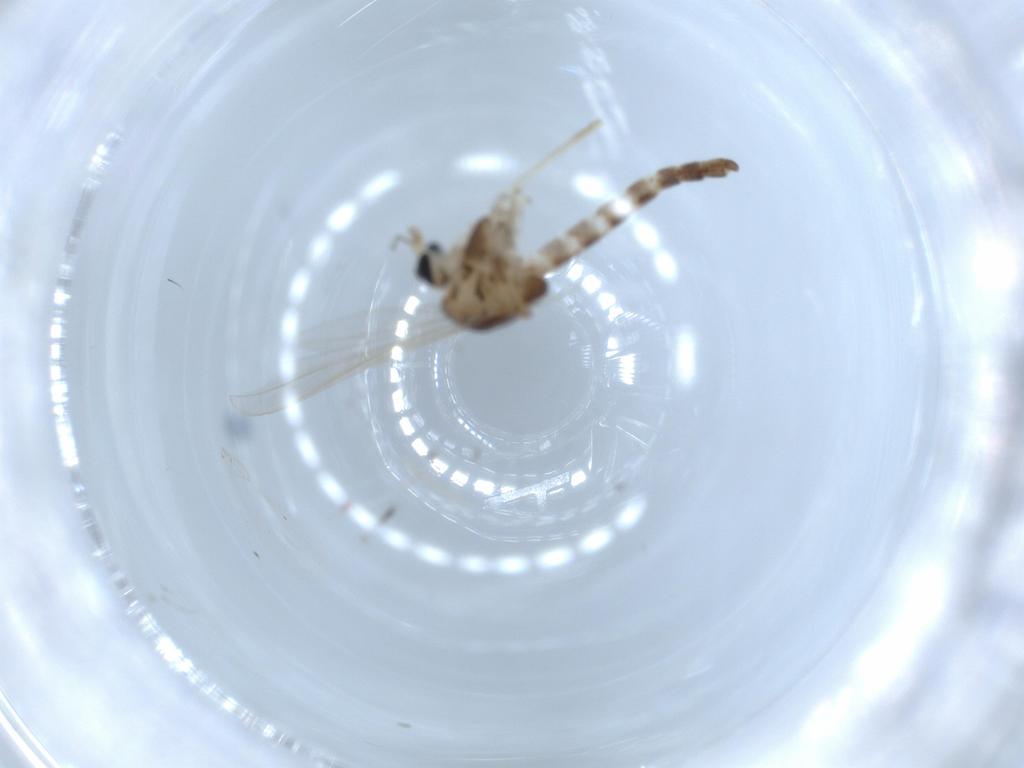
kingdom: Animalia
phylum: Arthropoda
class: Insecta
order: Diptera
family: Chironomidae
